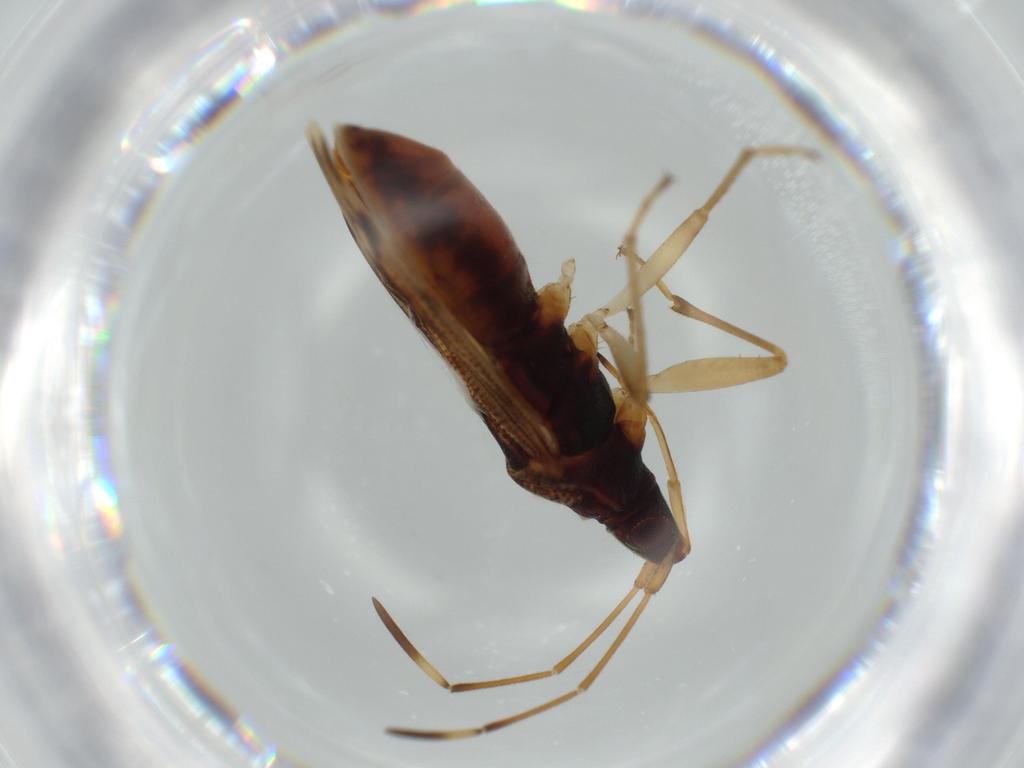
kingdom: Animalia
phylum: Arthropoda
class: Insecta
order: Hemiptera
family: Rhyparochromidae
